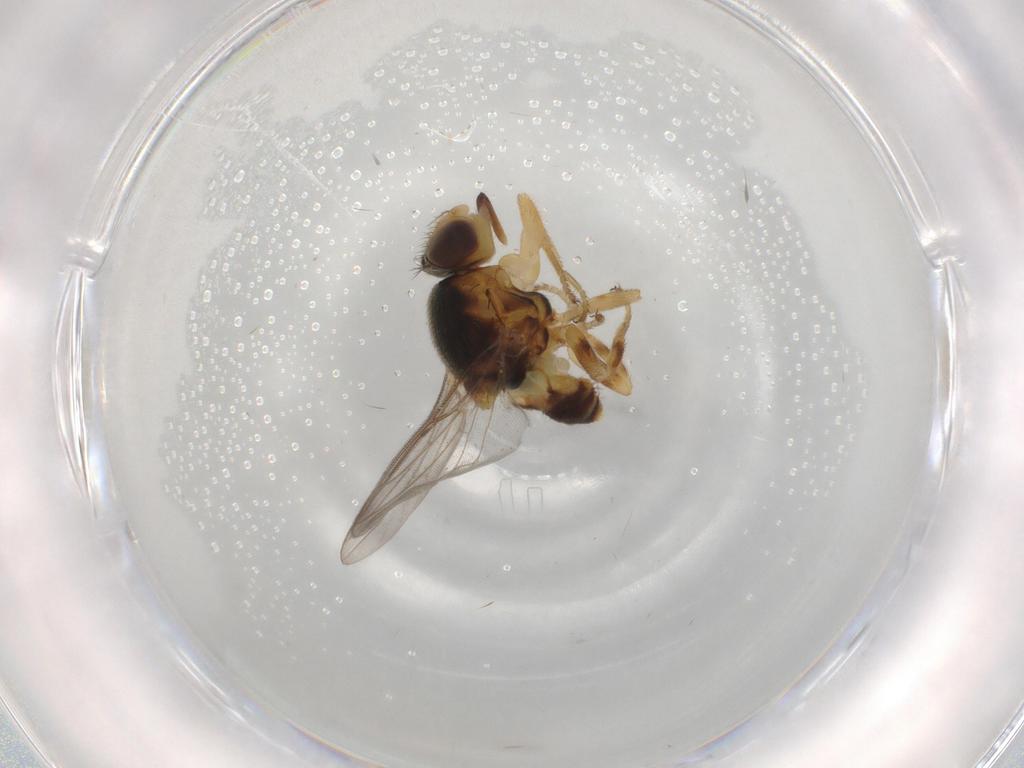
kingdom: Animalia
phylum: Arthropoda
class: Insecta
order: Diptera
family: Chloropidae
